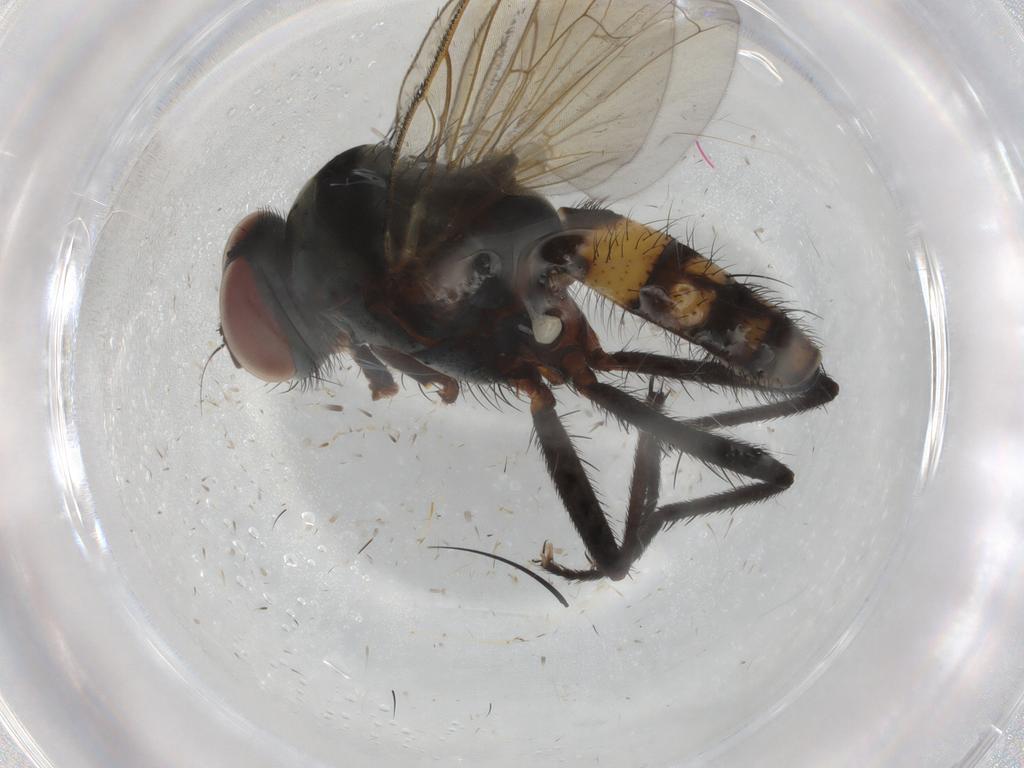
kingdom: Animalia
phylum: Arthropoda
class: Insecta
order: Diptera
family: Anthomyiidae
